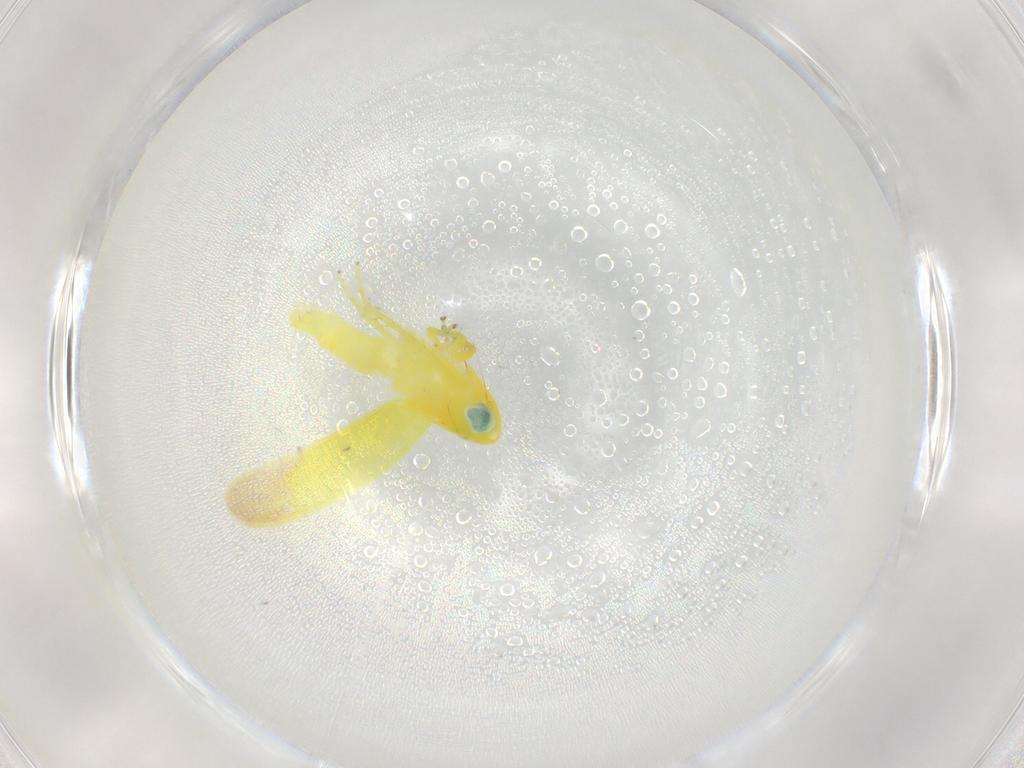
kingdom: Animalia
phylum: Arthropoda
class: Insecta
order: Hemiptera
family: Cicadellidae
